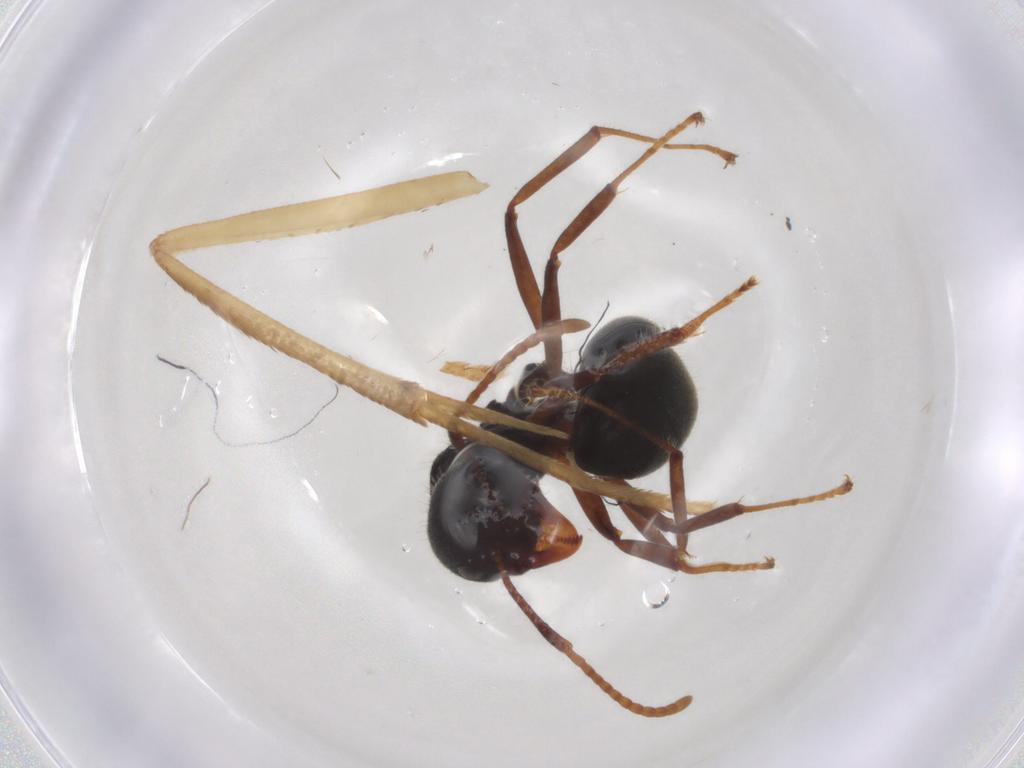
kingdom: Animalia
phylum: Arthropoda
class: Insecta
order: Hymenoptera
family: Formicidae
